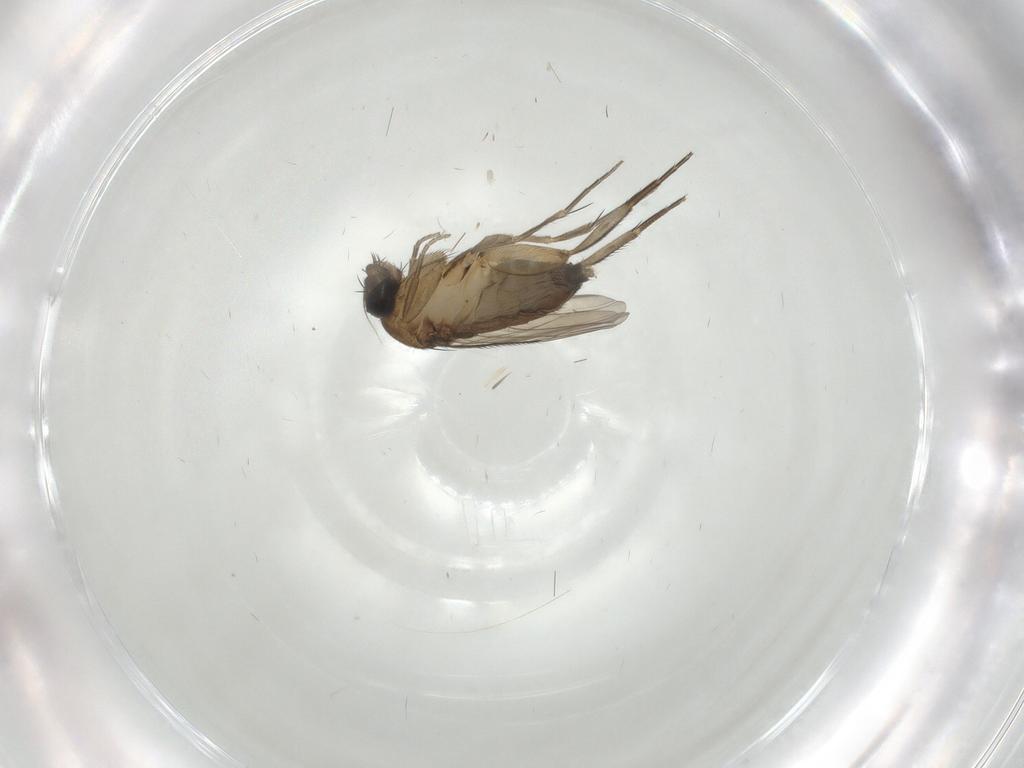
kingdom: Animalia
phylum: Arthropoda
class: Insecta
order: Diptera
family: Phoridae
